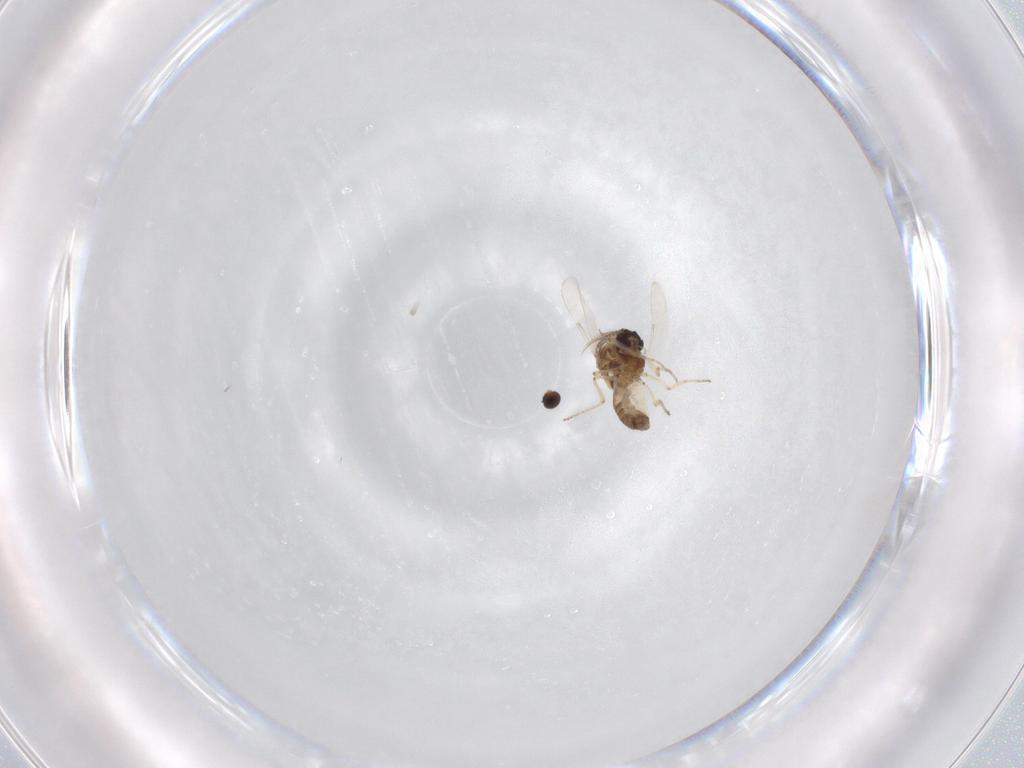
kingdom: Animalia
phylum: Arthropoda
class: Insecta
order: Diptera
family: Ceratopogonidae
